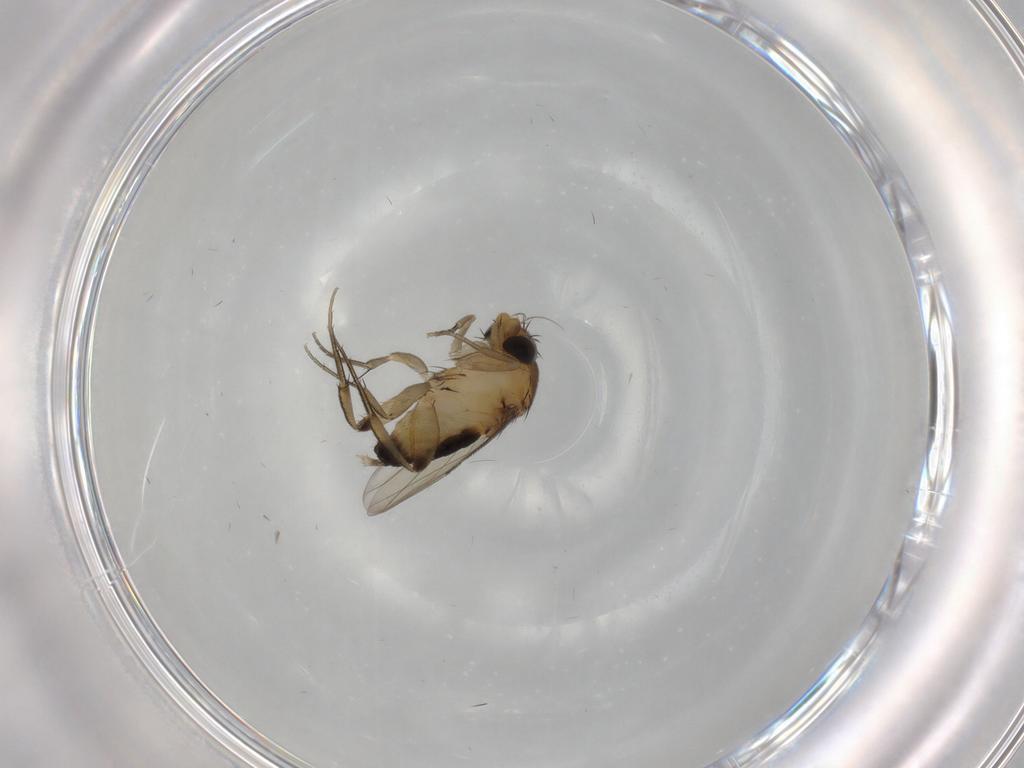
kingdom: Animalia
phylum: Arthropoda
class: Insecta
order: Diptera
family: Phoridae
